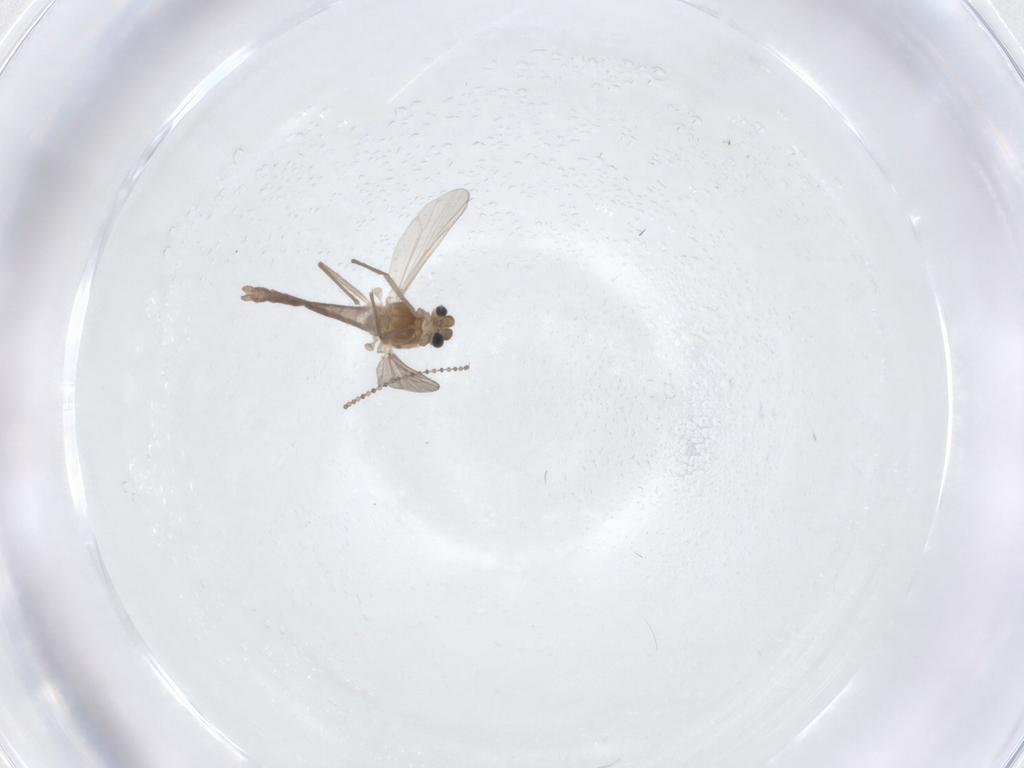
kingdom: Animalia
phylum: Arthropoda
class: Insecta
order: Diptera
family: Chironomidae
